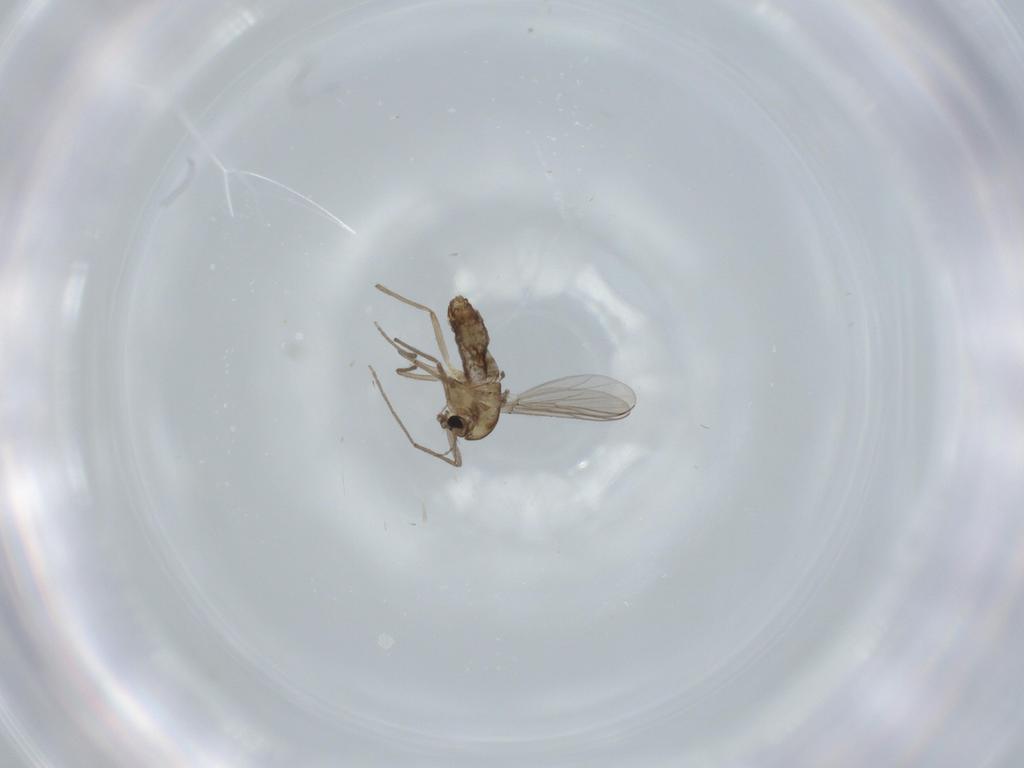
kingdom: Animalia
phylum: Arthropoda
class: Insecta
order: Diptera
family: Chironomidae
